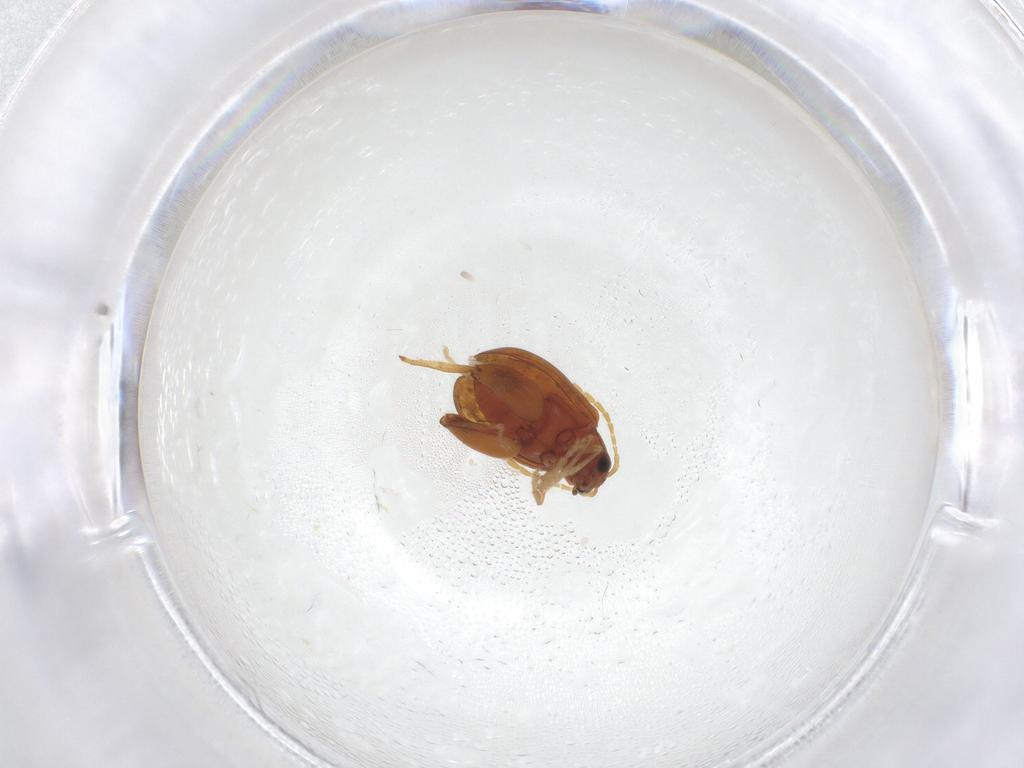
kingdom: Animalia
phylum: Arthropoda
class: Insecta
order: Coleoptera
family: Chrysomelidae
